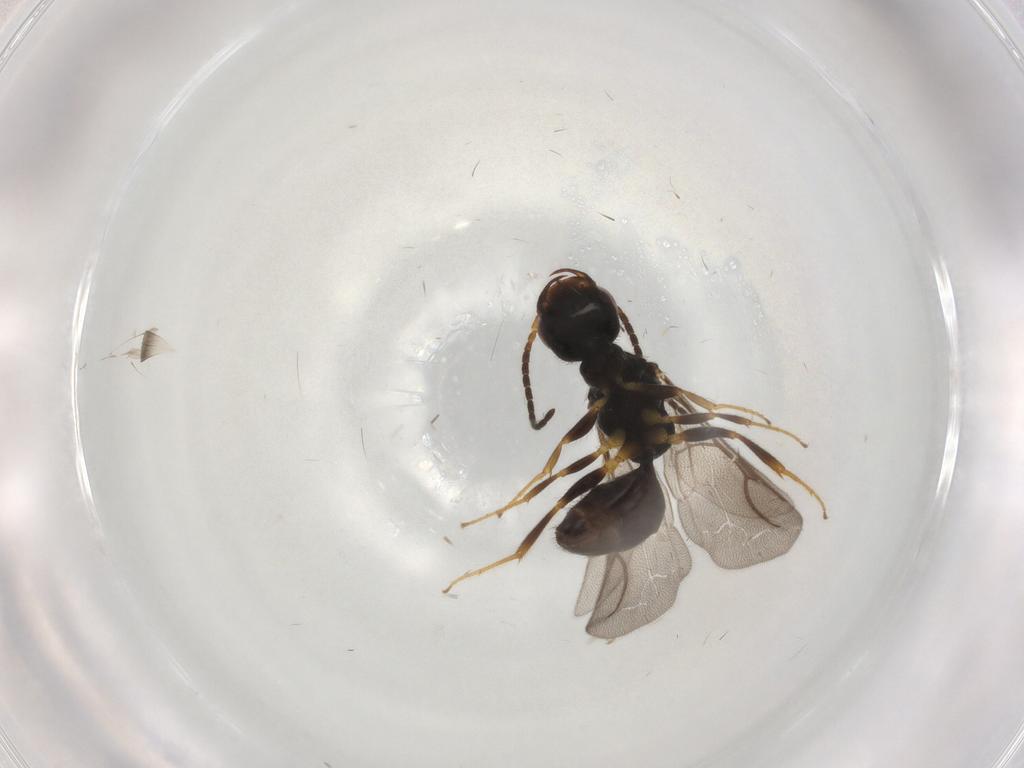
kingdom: Animalia
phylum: Arthropoda
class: Insecta
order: Hymenoptera
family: Bethylidae
